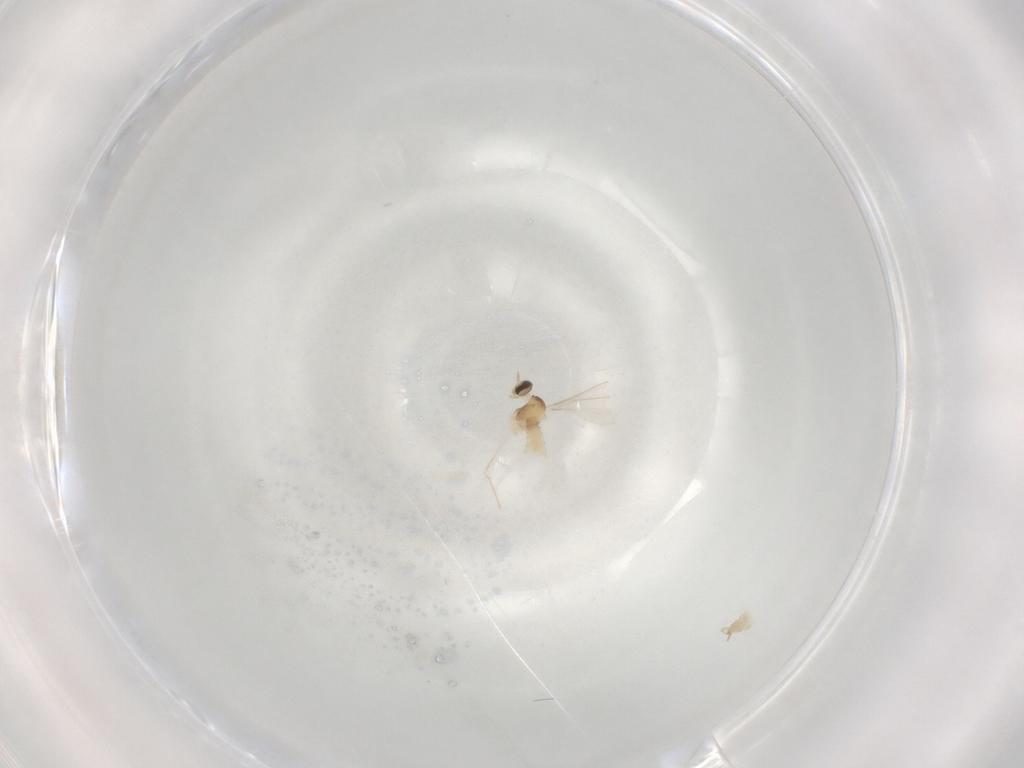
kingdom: Animalia
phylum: Arthropoda
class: Insecta
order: Diptera
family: Cecidomyiidae
